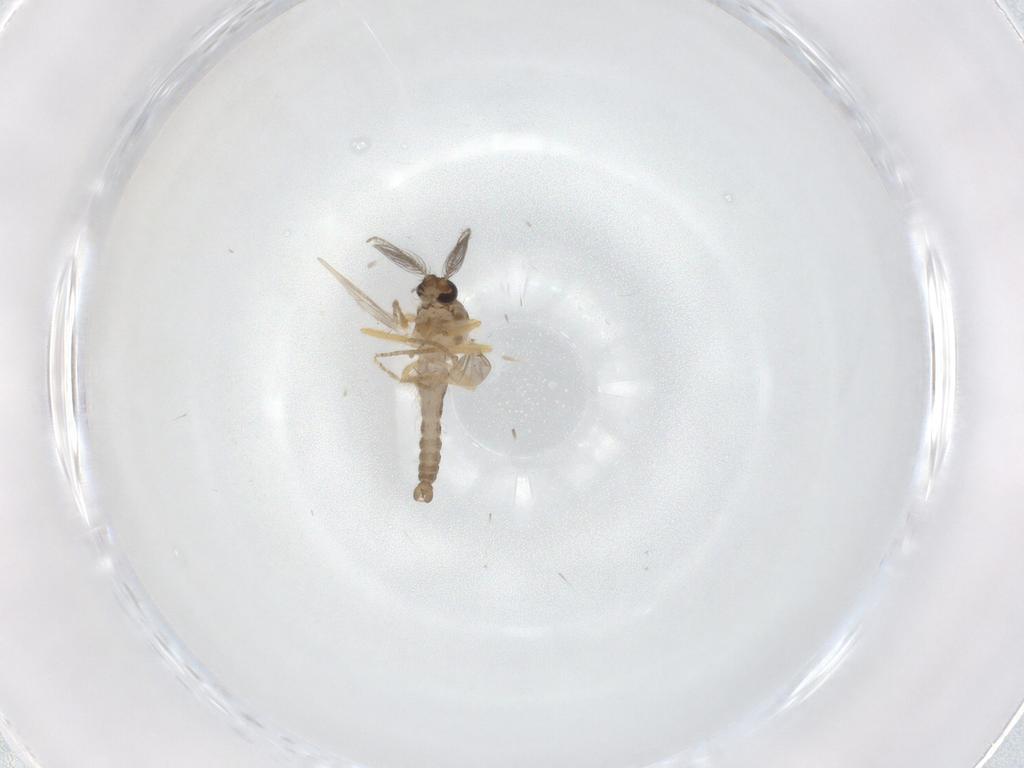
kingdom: Animalia
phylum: Arthropoda
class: Insecta
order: Diptera
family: Ceratopogonidae
